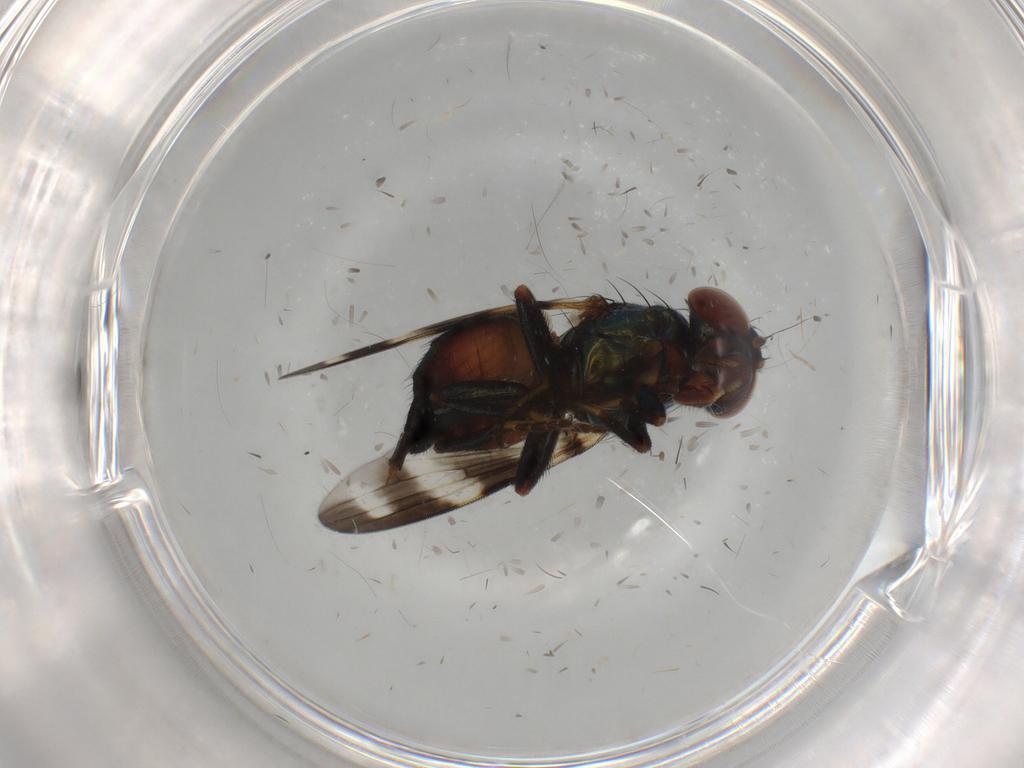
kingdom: Animalia
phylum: Arthropoda
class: Insecta
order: Diptera
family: Ulidiidae
